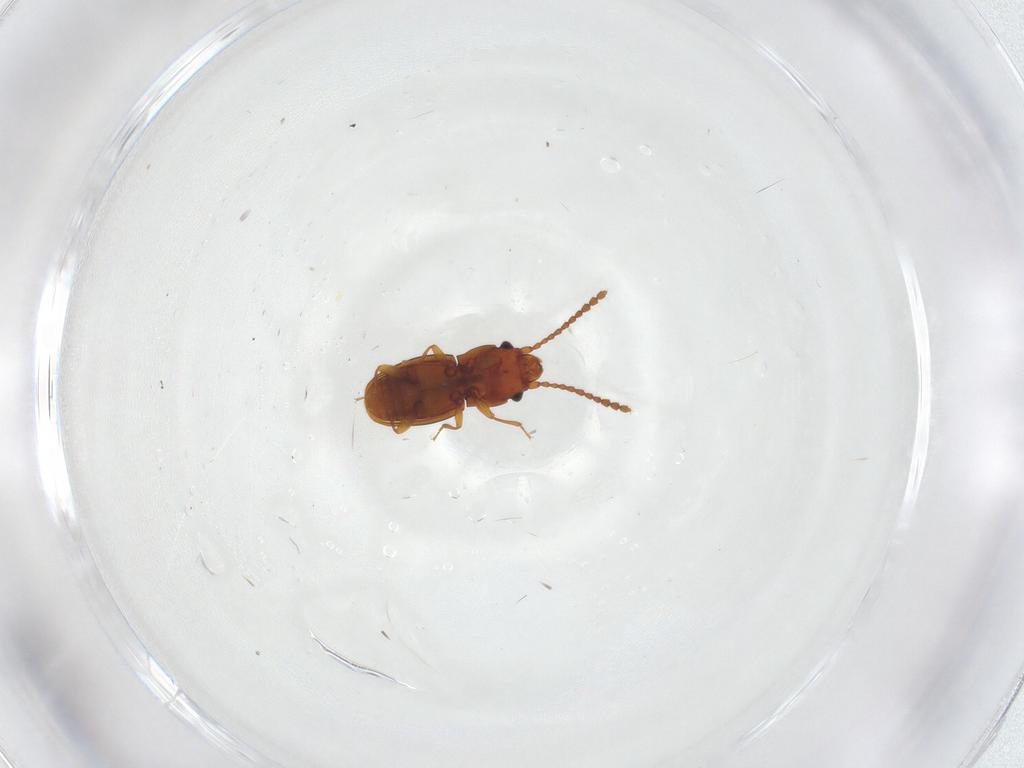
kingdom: Animalia
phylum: Arthropoda
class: Insecta
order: Coleoptera
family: Laemophloeidae
